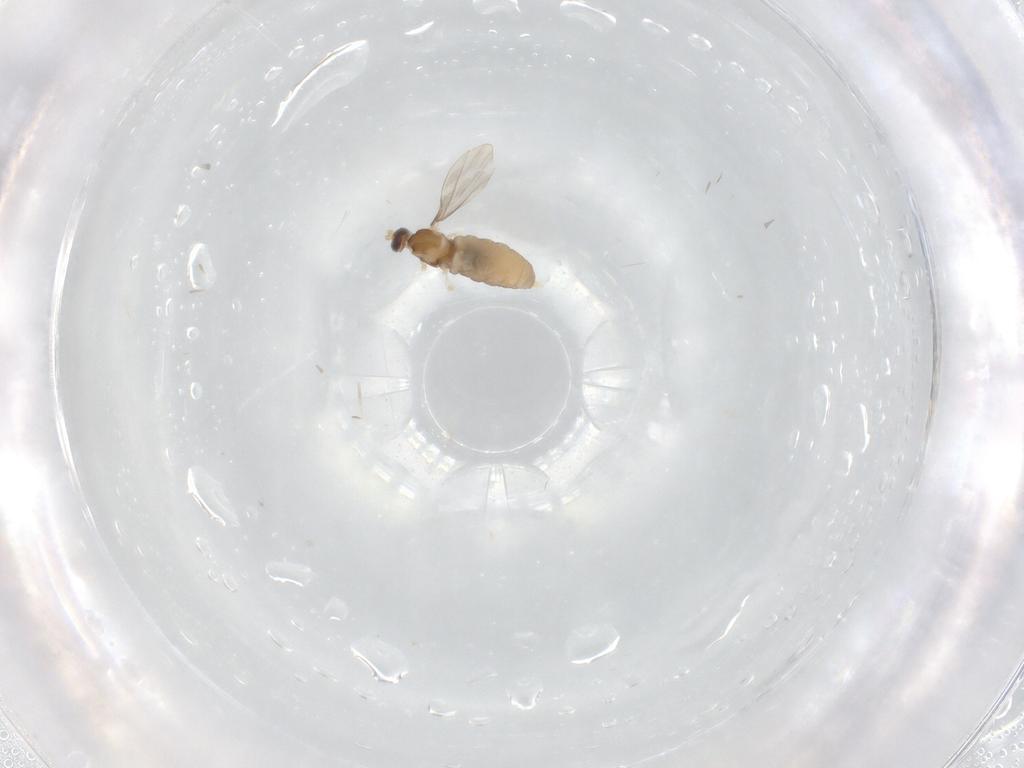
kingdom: Animalia
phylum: Arthropoda
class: Insecta
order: Diptera
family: Cecidomyiidae
